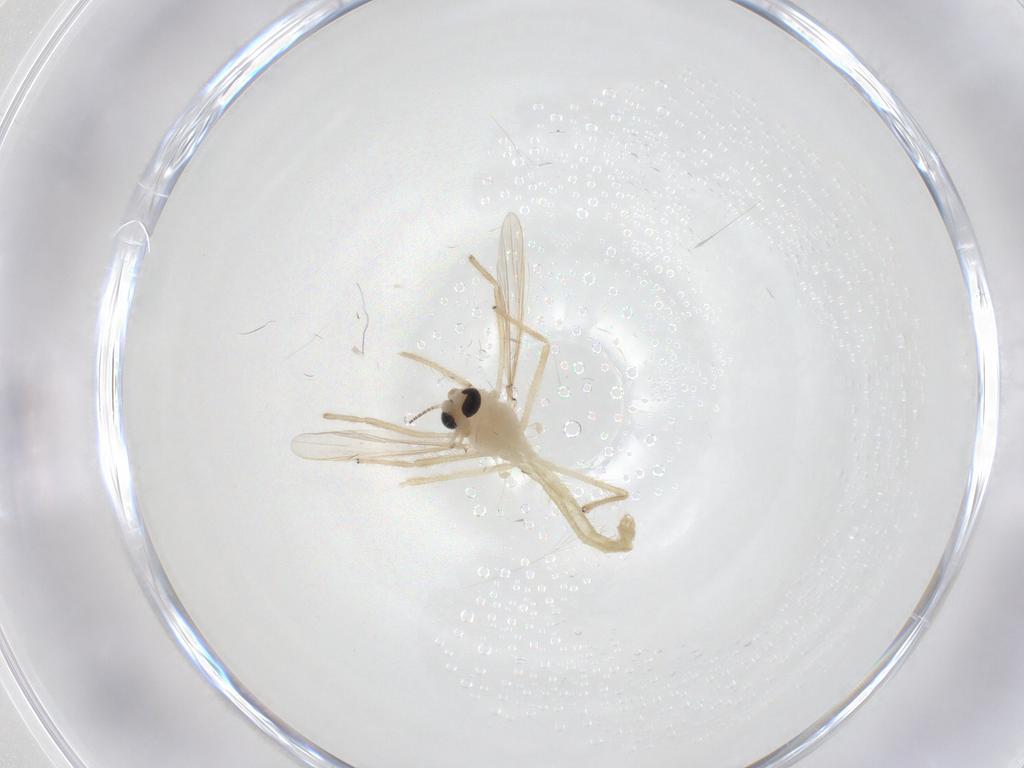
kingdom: Animalia
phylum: Arthropoda
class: Insecta
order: Diptera
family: Chironomidae
